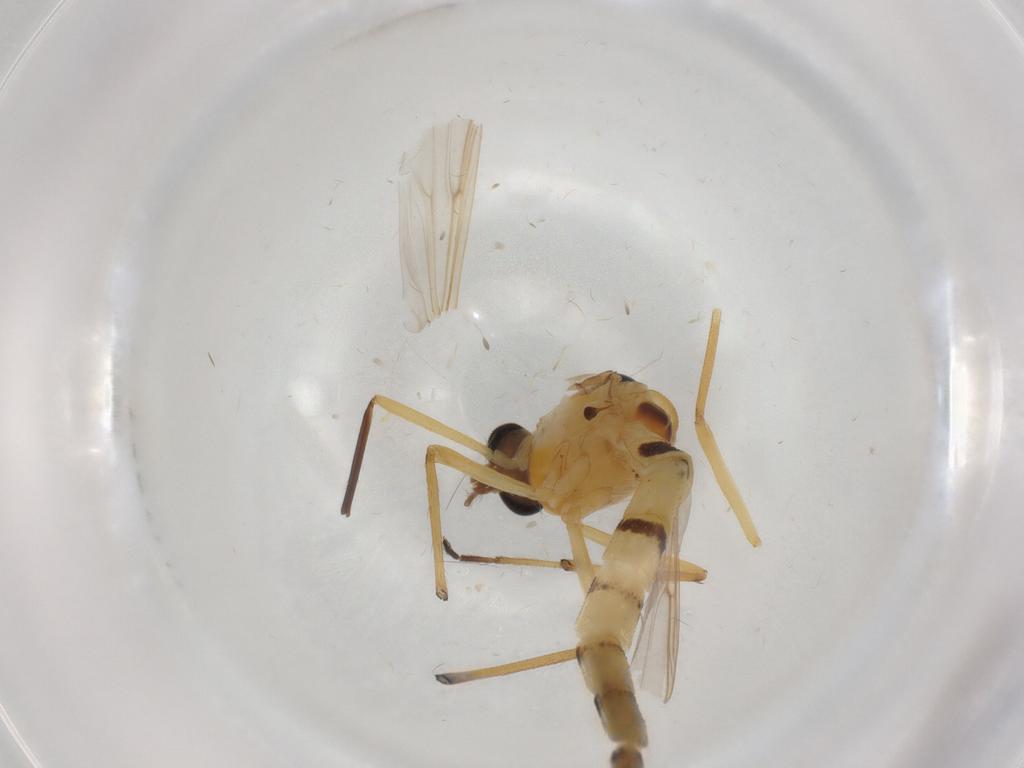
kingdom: Animalia
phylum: Arthropoda
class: Insecta
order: Diptera
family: Chironomidae
